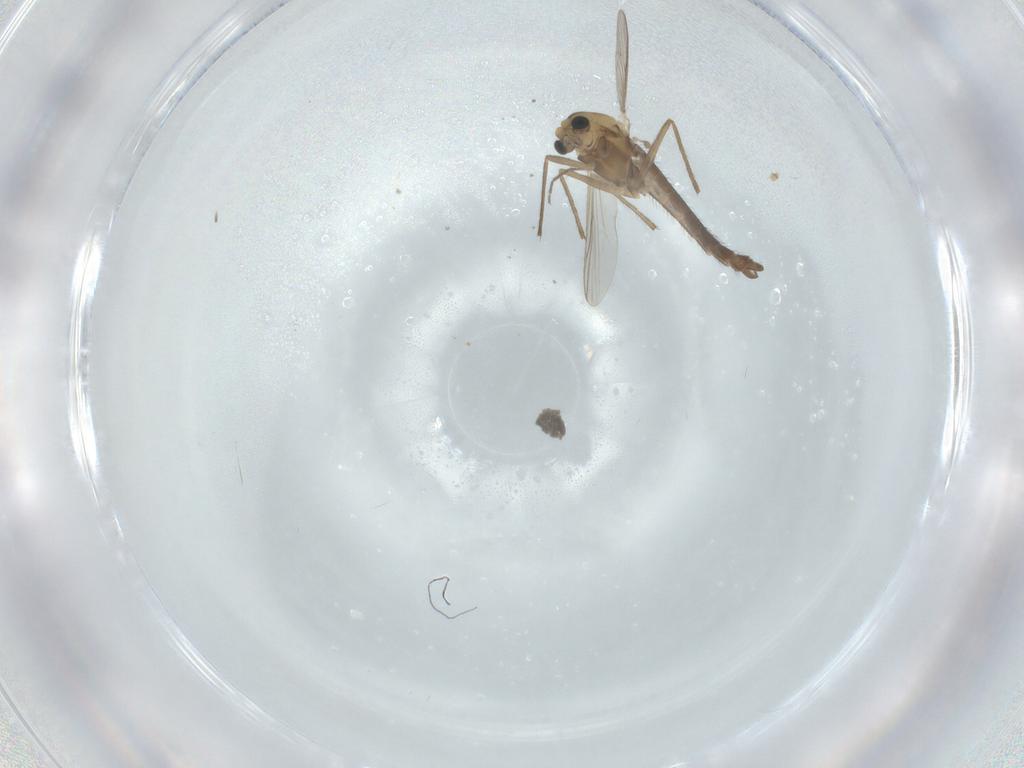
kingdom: Animalia
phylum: Arthropoda
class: Insecta
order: Diptera
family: Chironomidae
